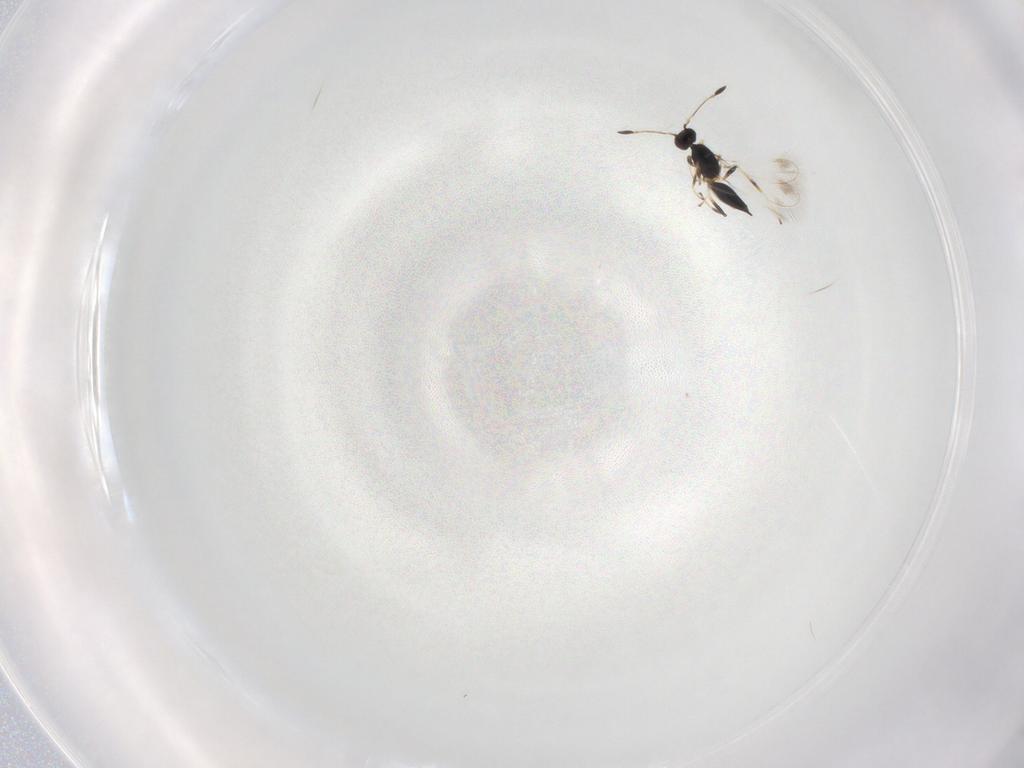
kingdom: Animalia
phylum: Arthropoda
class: Insecta
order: Hymenoptera
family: Mymaridae
